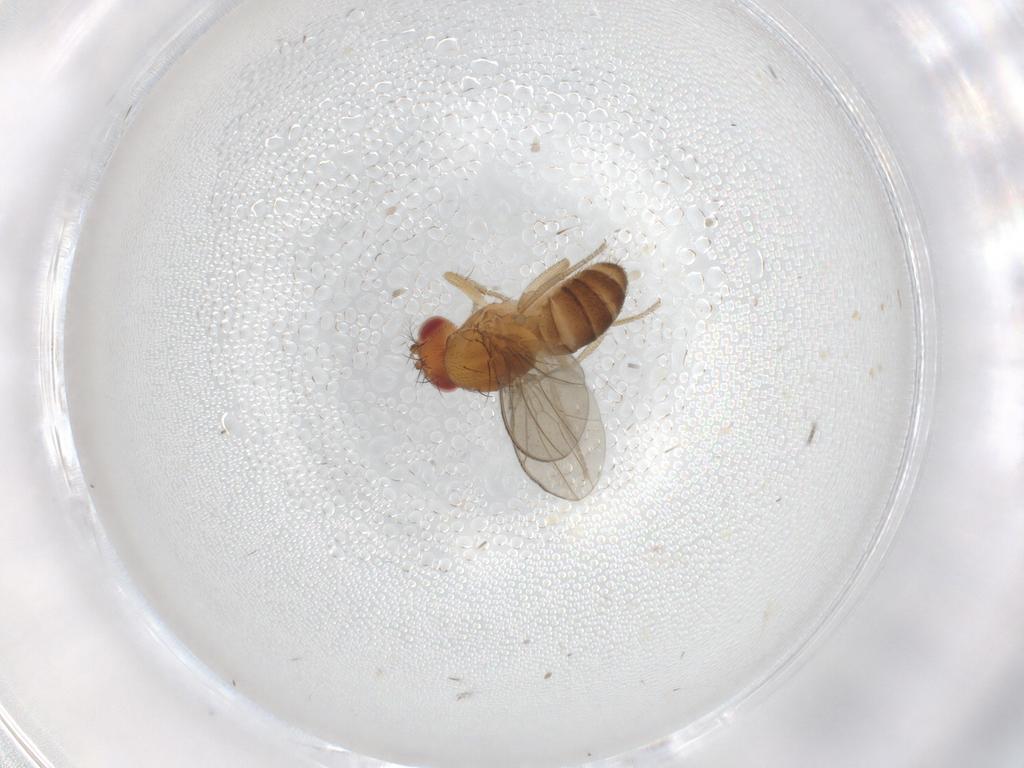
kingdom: Animalia
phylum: Arthropoda
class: Insecta
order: Diptera
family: Drosophilidae
